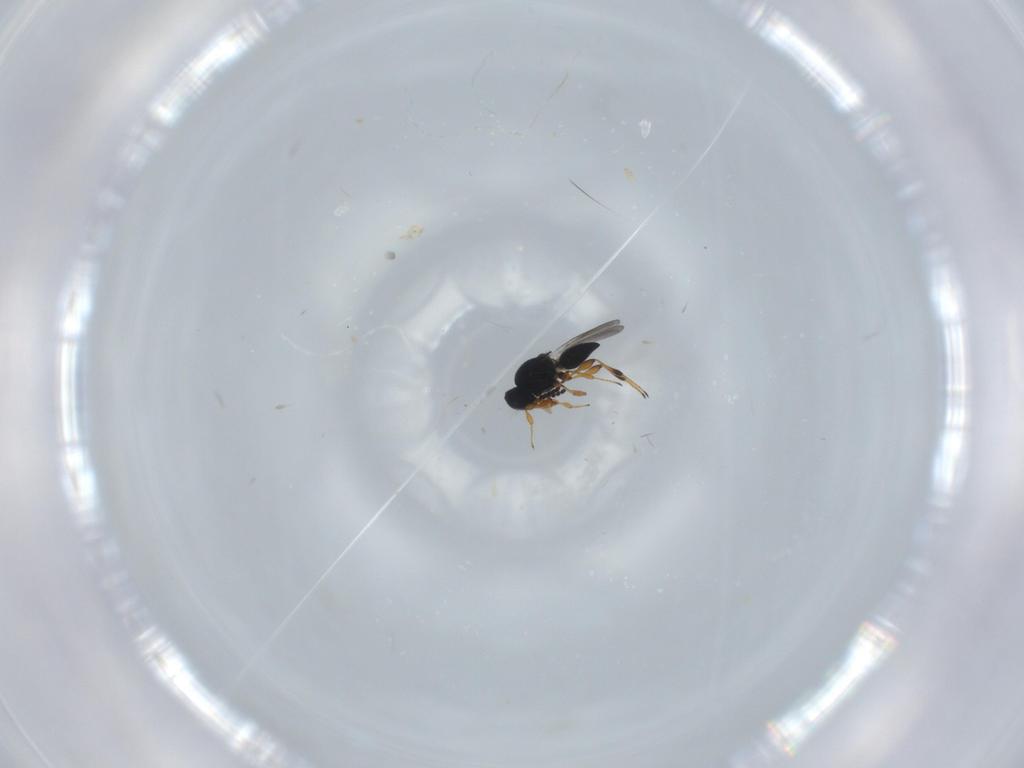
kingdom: Animalia
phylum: Arthropoda
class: Insecta
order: Hymenoptera
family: Platygastridae
